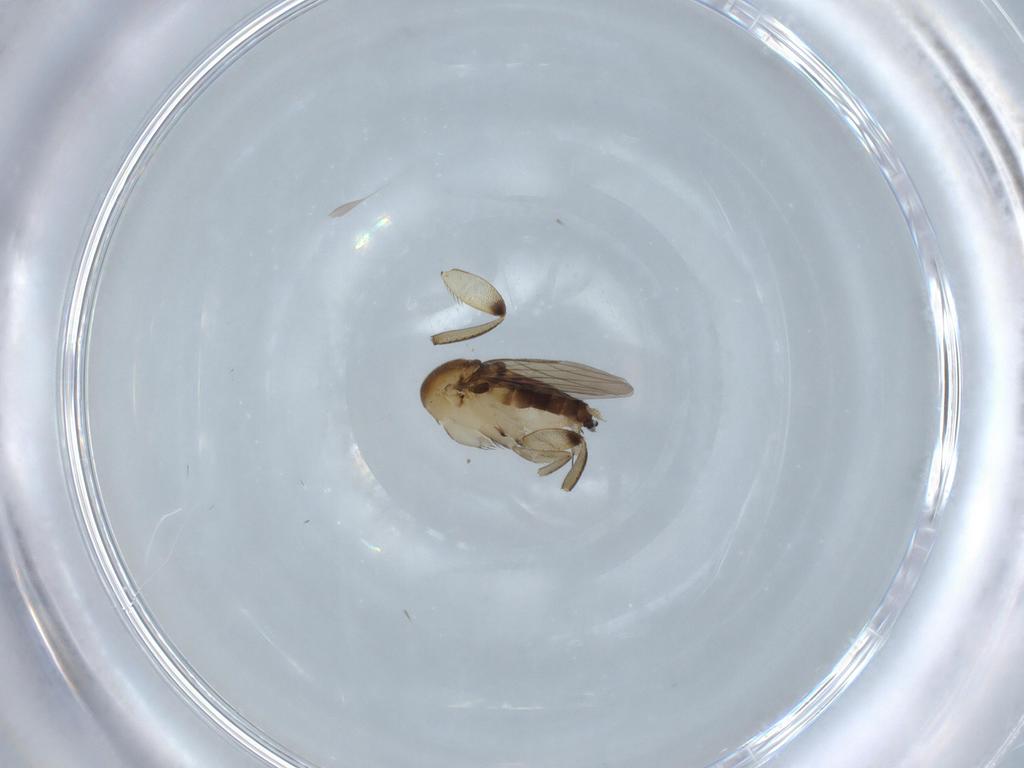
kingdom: Animalia
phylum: Arthropoda
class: Insecta
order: Diptera
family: Phoridae
